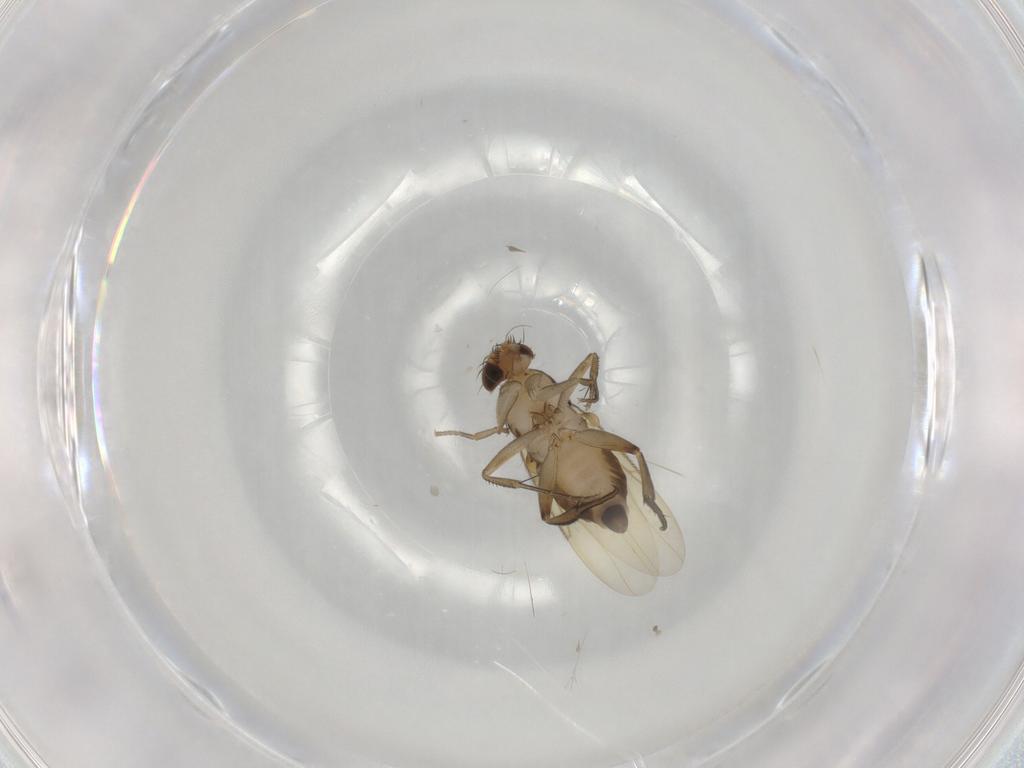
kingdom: Animalia
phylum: Arthropoda
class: Insecta
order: Diptera
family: Phoridae
